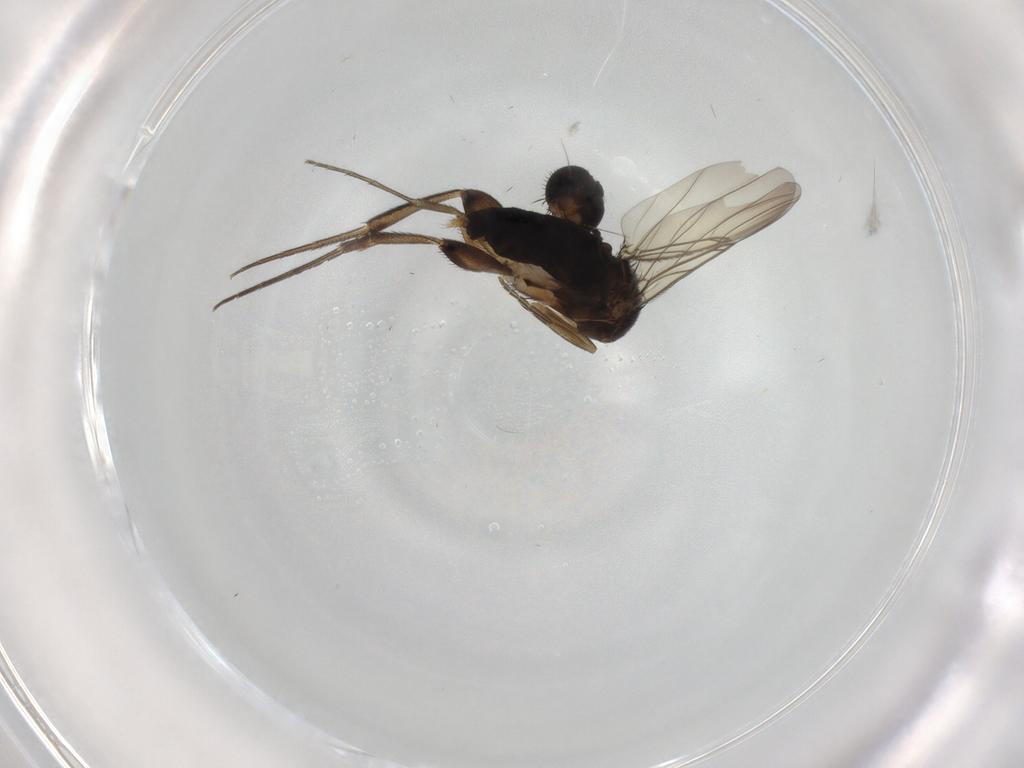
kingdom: Animalia
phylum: Arthropoda
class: Insecta
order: Diptera
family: Phoridae
